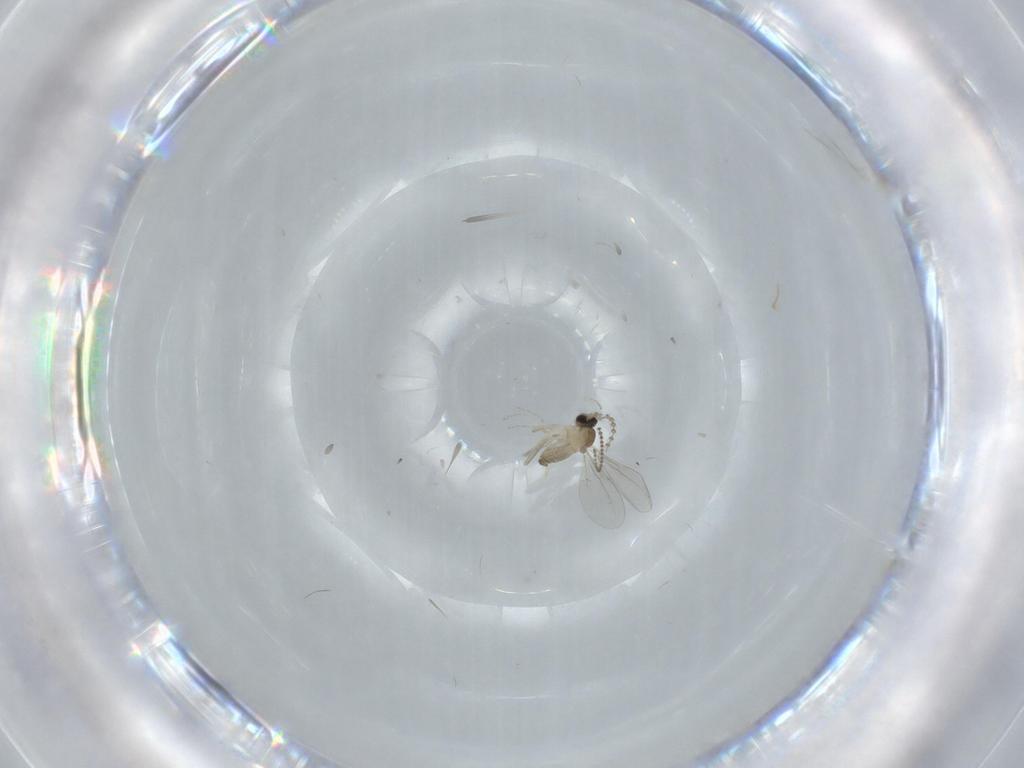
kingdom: Animalia
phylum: Arthropoda
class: Insecta
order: Diptera
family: Cecidomyiidae
